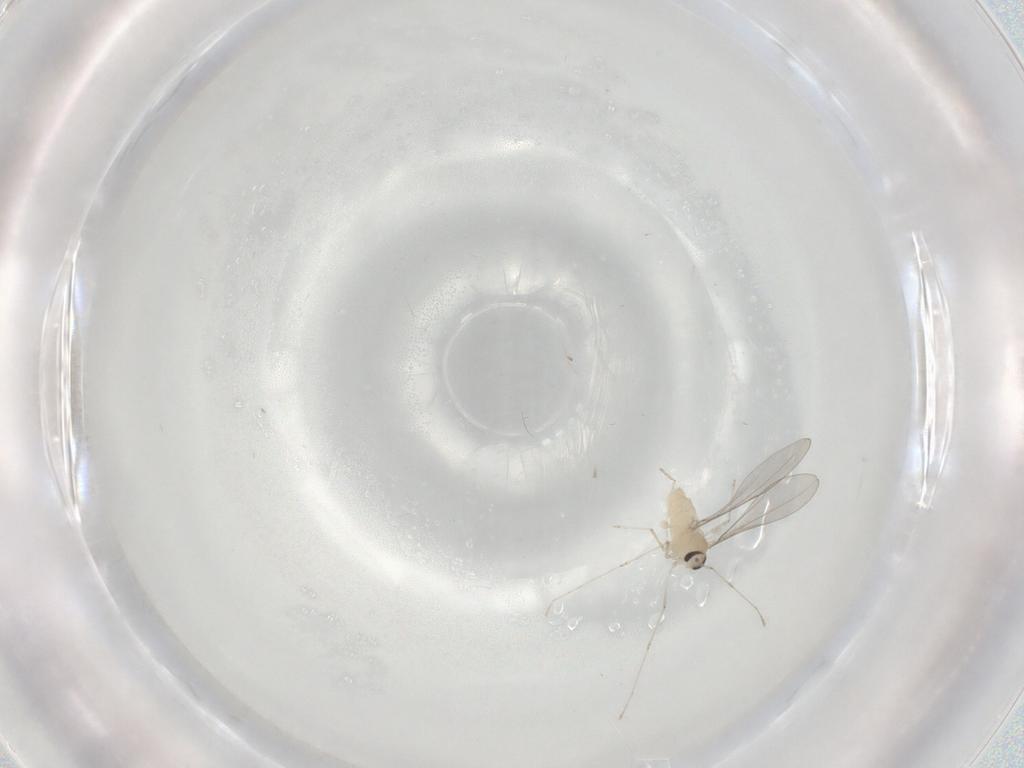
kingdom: Animalia
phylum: Arthropoda
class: Insecta
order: Diptera
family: Cecidomyiidae
